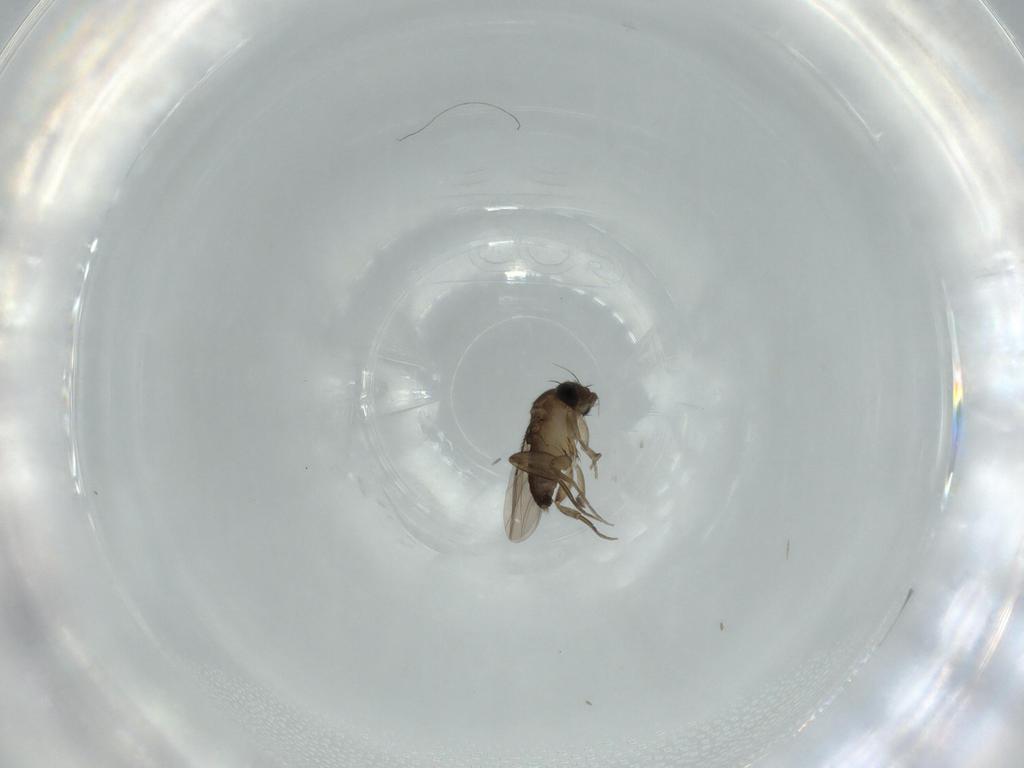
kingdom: Animalia
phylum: Arthropoda
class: Insecta
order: Diptera
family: Phoridae
